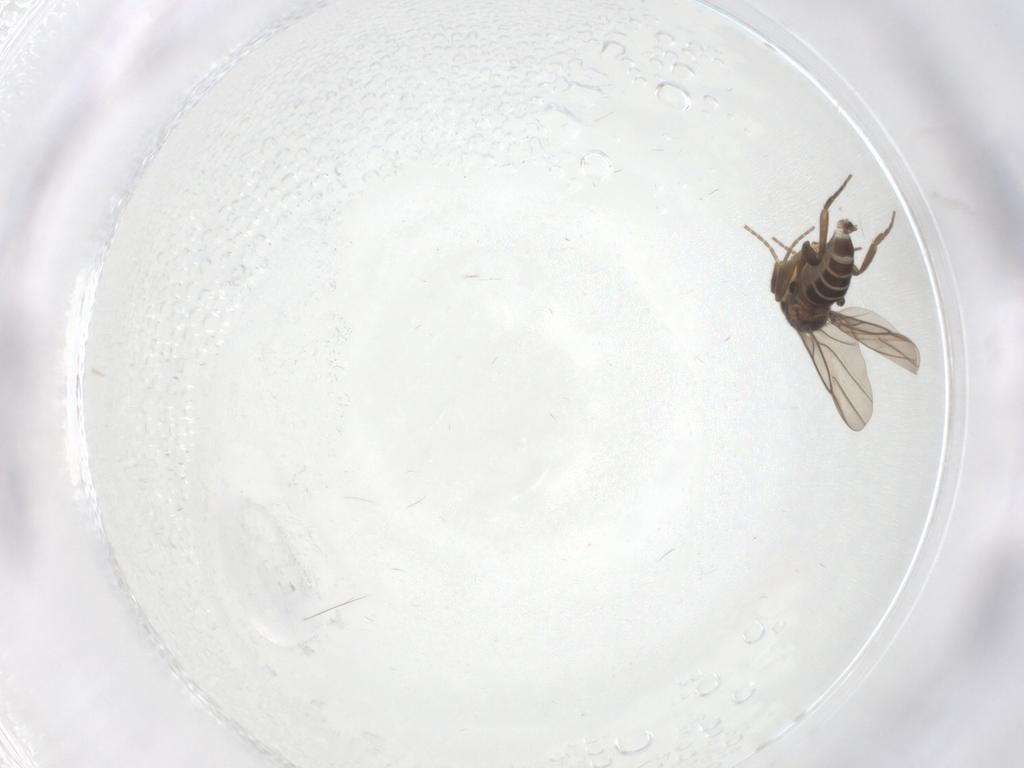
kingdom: Animalia
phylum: Arthropoda
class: Insecta
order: Diptera
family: Phoridae
